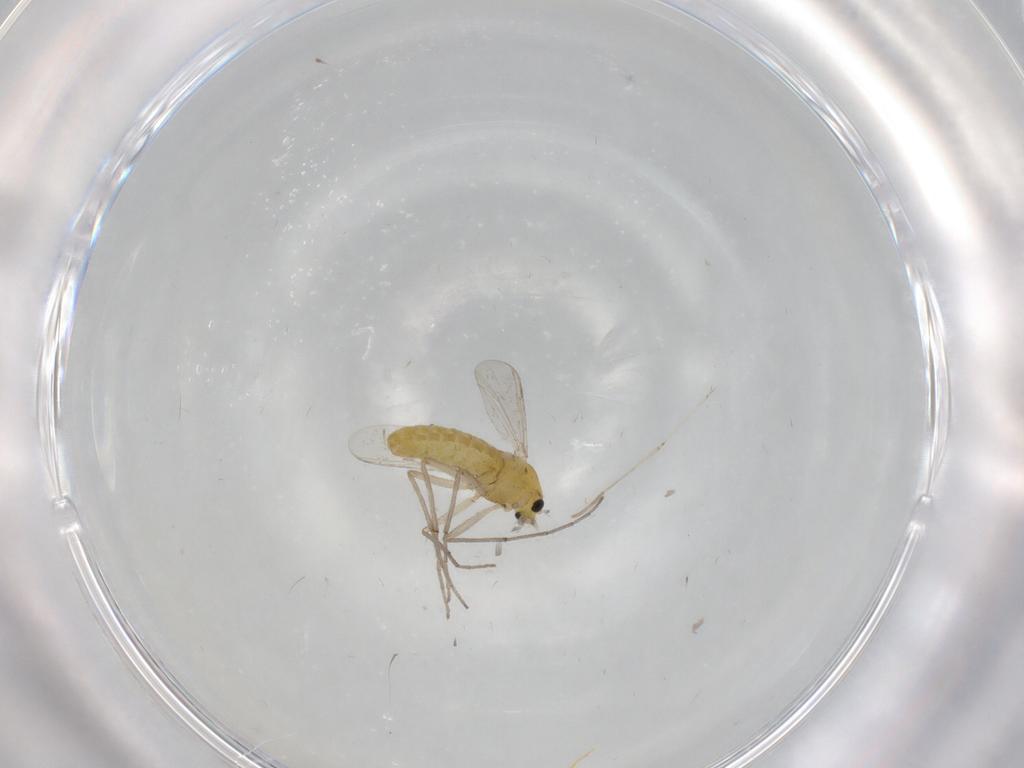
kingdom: Animalia
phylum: Arthropoda
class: Insecta
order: Diptera
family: Chironomidae
